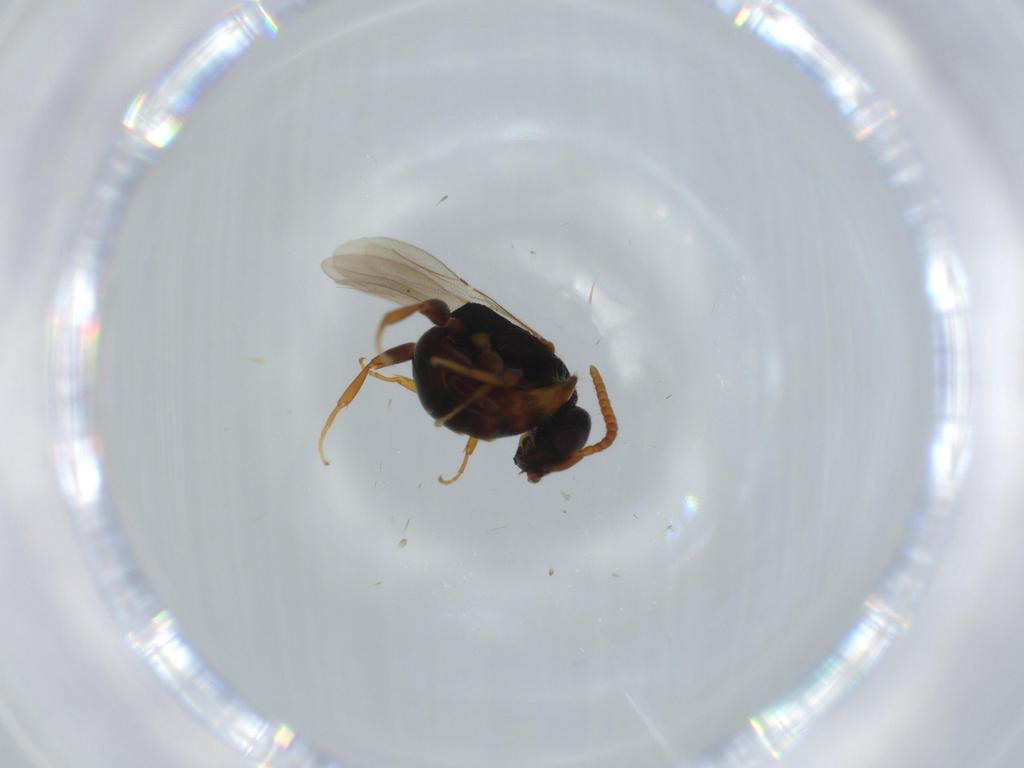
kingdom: Animalia
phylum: Arthropoda
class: Insecta
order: Hymenoptera
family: Bethylidae
